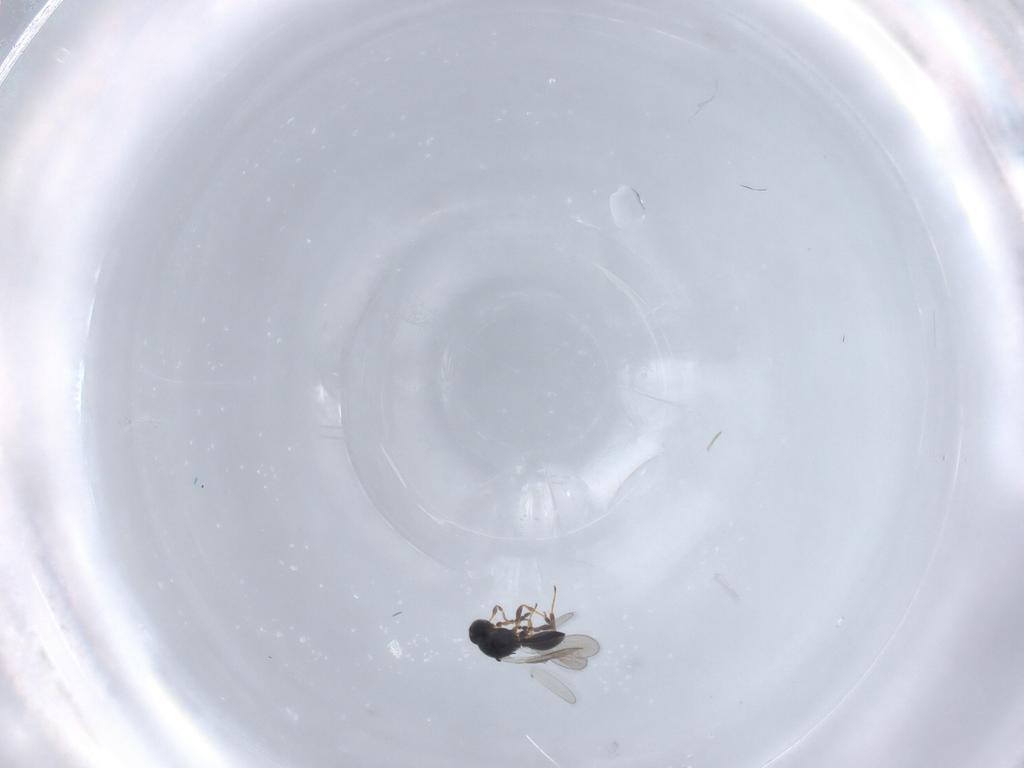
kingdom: Animalia
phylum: Arthropoda
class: Insecta
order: Hymenoptera
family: Platygastridae
